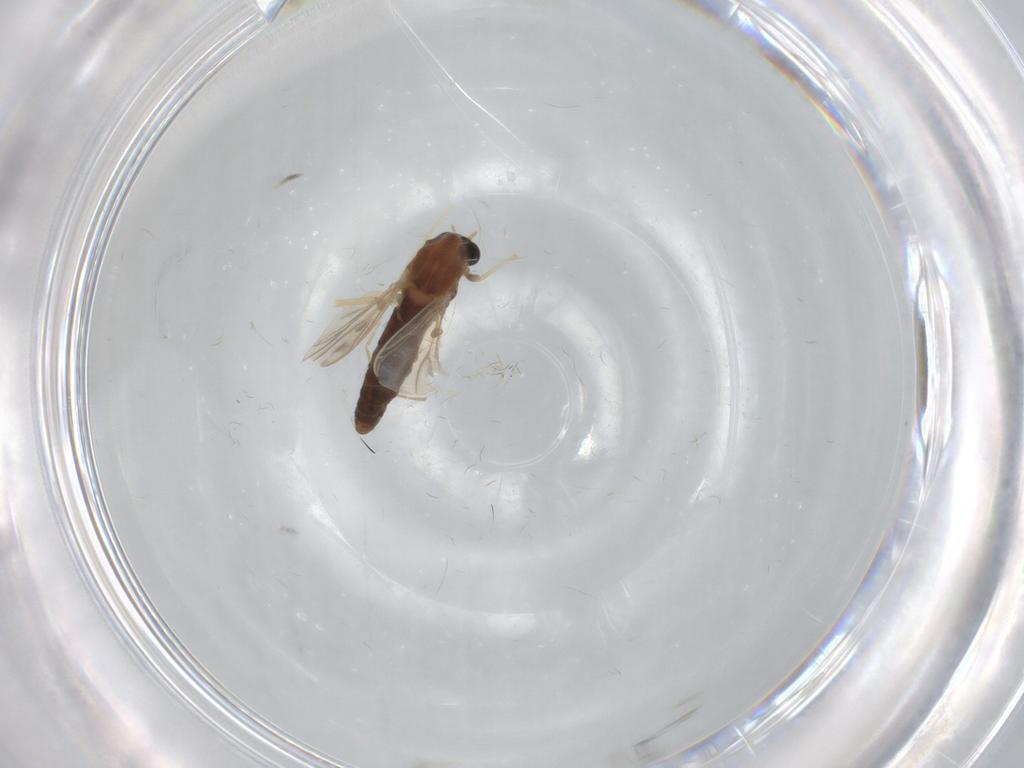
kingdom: Animalia
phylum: Arthropoda
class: Insecta
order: Diptera
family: Chironomidae
